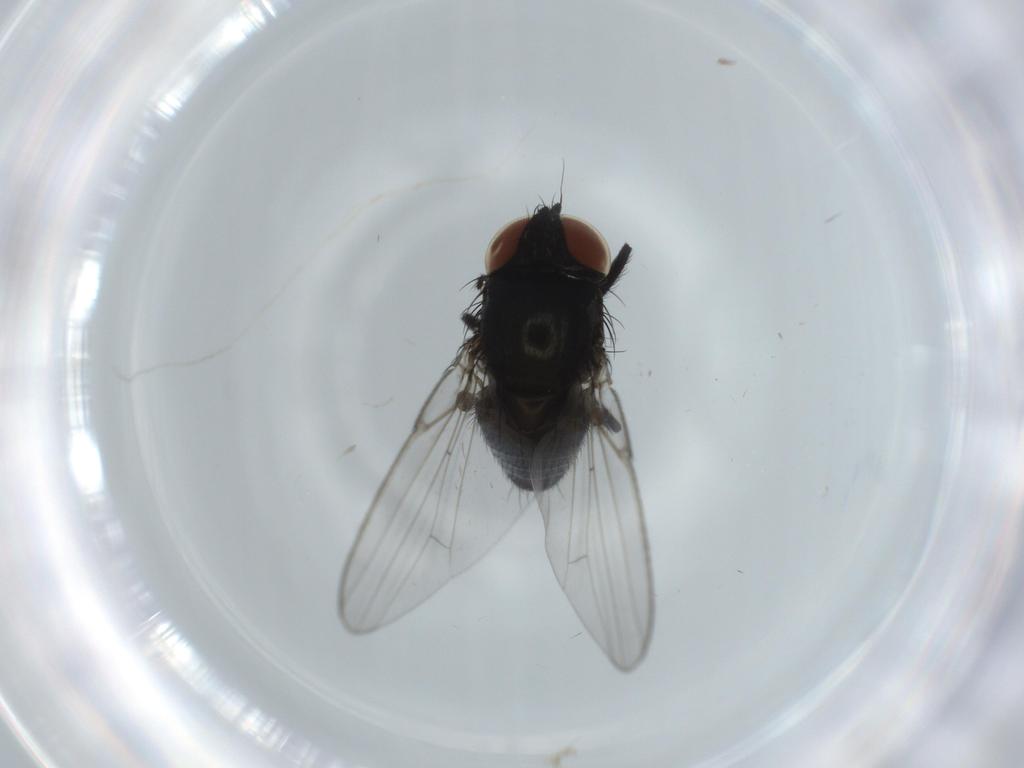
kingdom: Animalia
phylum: Arthropoda
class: Insecta
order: Diptera
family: Milichiidae
